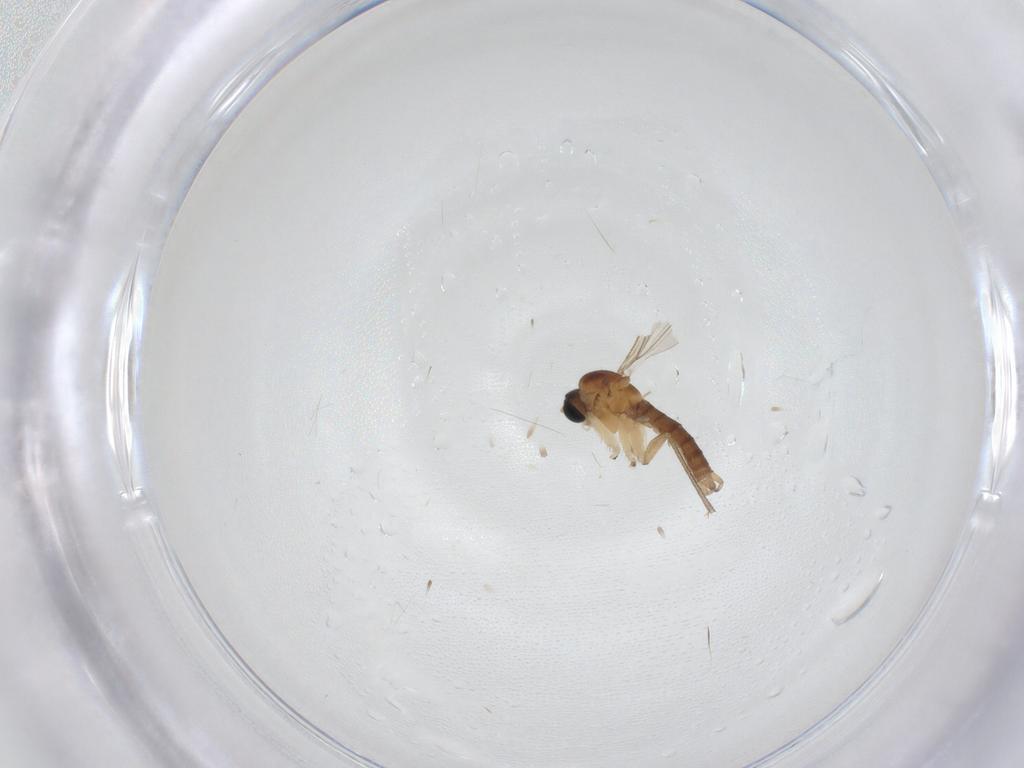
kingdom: Animalia
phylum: Arthropoda
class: Insecta
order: Diptera
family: Sciaridae
